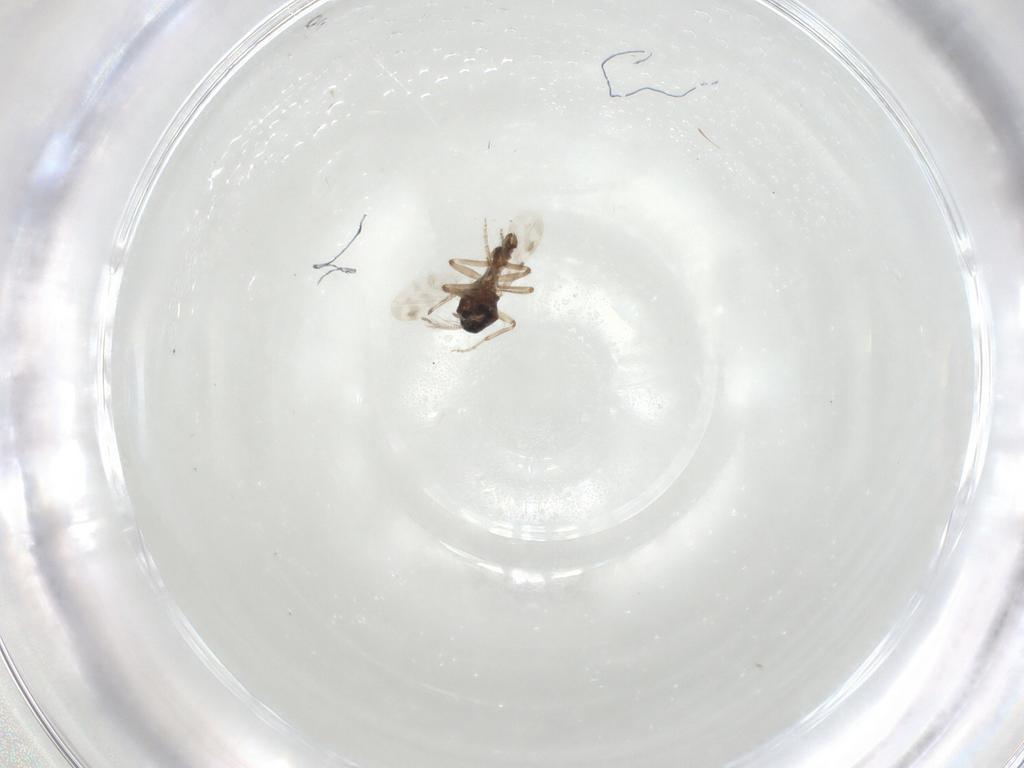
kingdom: Animalia
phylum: Arthropoda
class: Insecta
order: Diptera
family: Ceratopogonidae
